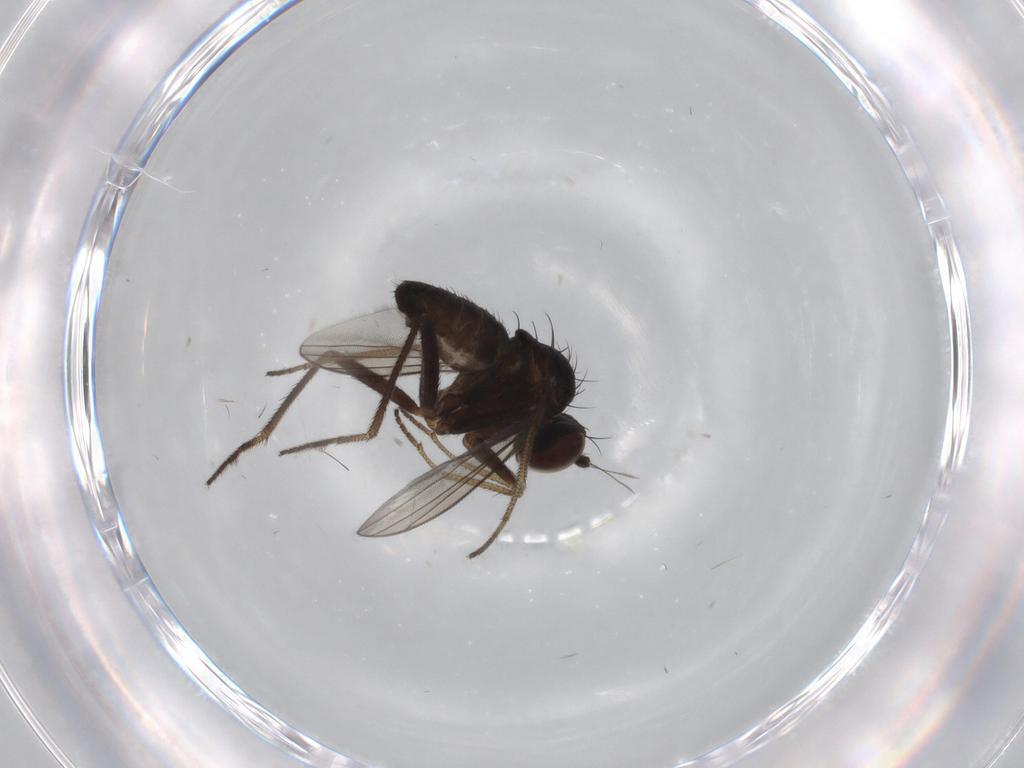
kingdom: Animalia
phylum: Arthropoda
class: Insecta
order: Diptera
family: Dolichopodidae
